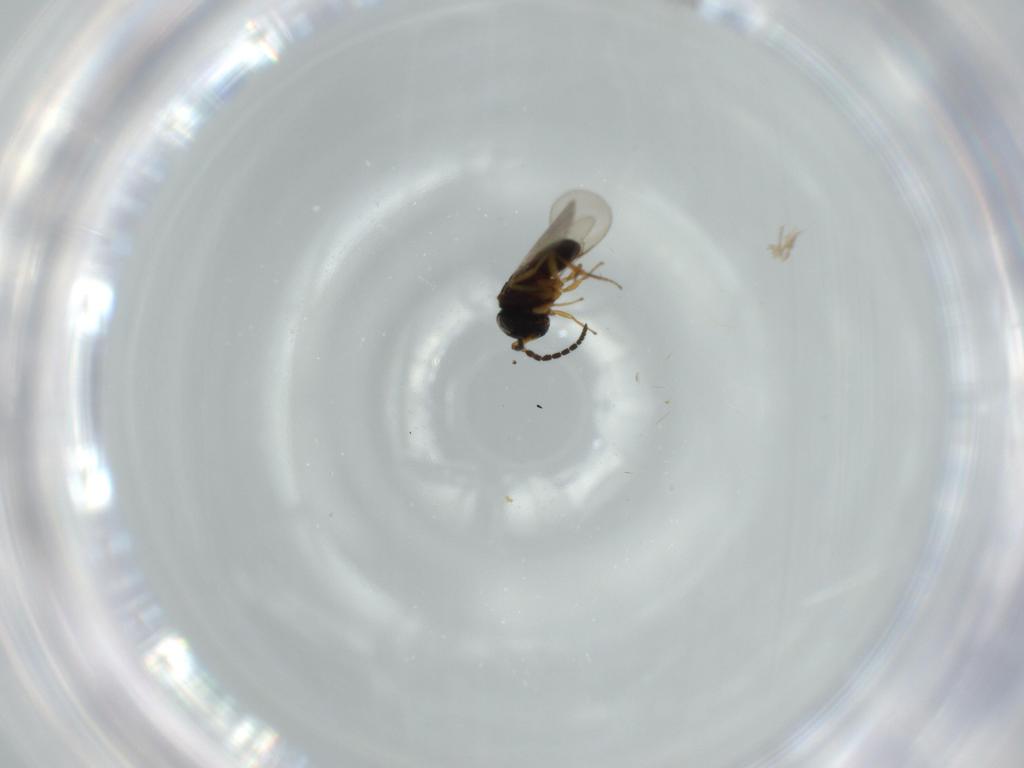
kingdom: Animalia
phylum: Arthropoda
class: Insecta
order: Hymenoptera
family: Scelionidae
